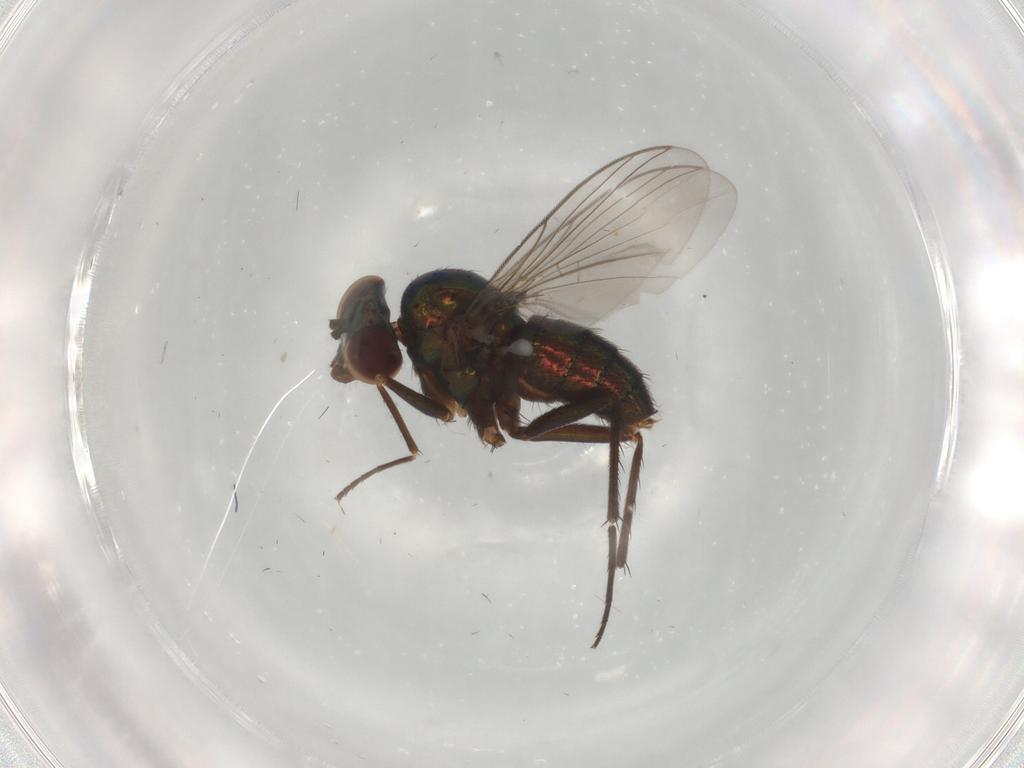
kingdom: Animalia
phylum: Arthropoda
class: Insecta
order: Diptera
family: Dolichopodidae
